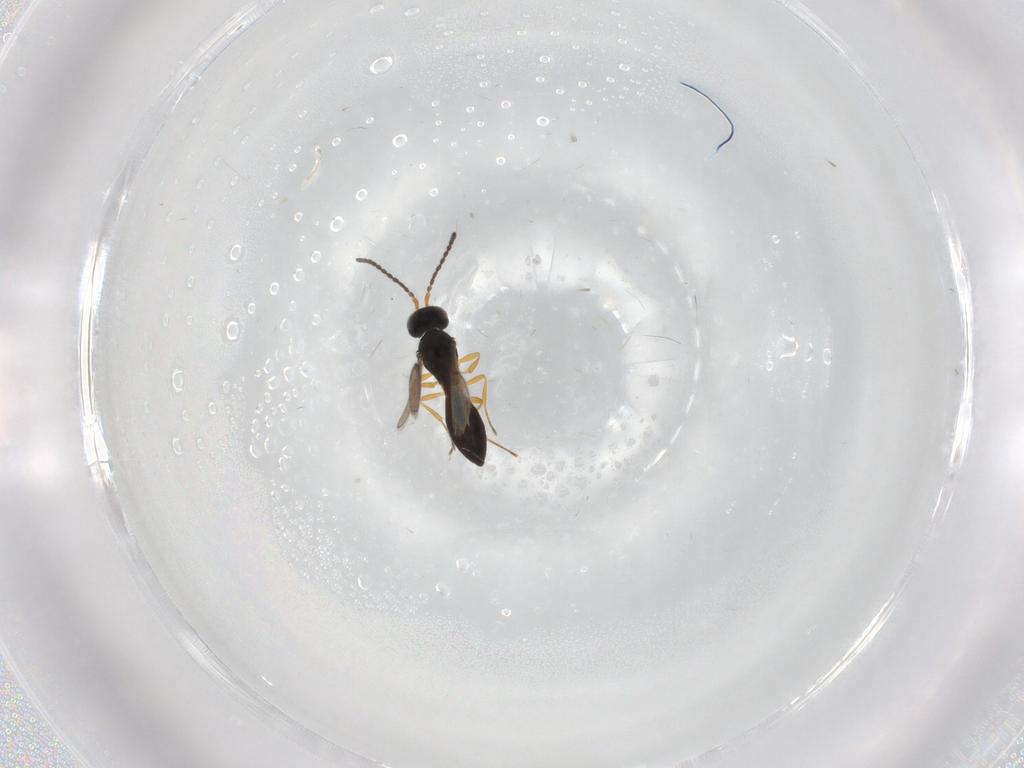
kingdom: Animalia
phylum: Arthropoda
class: Insecta
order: Hymenoptera
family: Scelionidae
